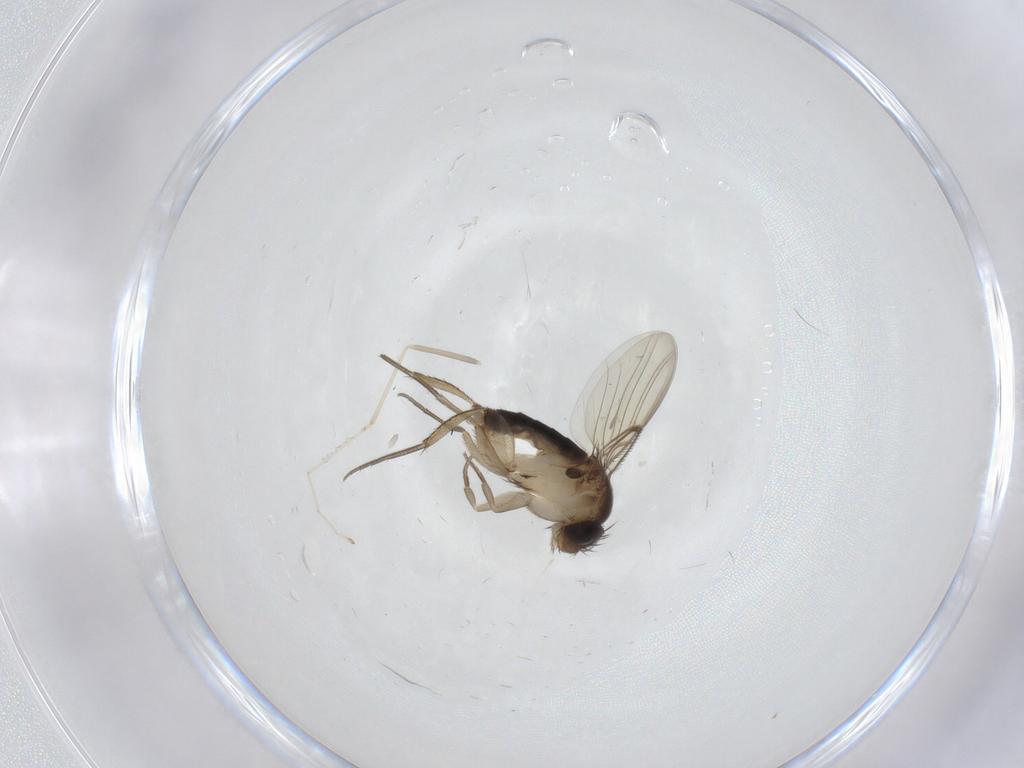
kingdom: Animalia
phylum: Arthropoda
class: Insecta
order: Diptera
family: Phoridae
